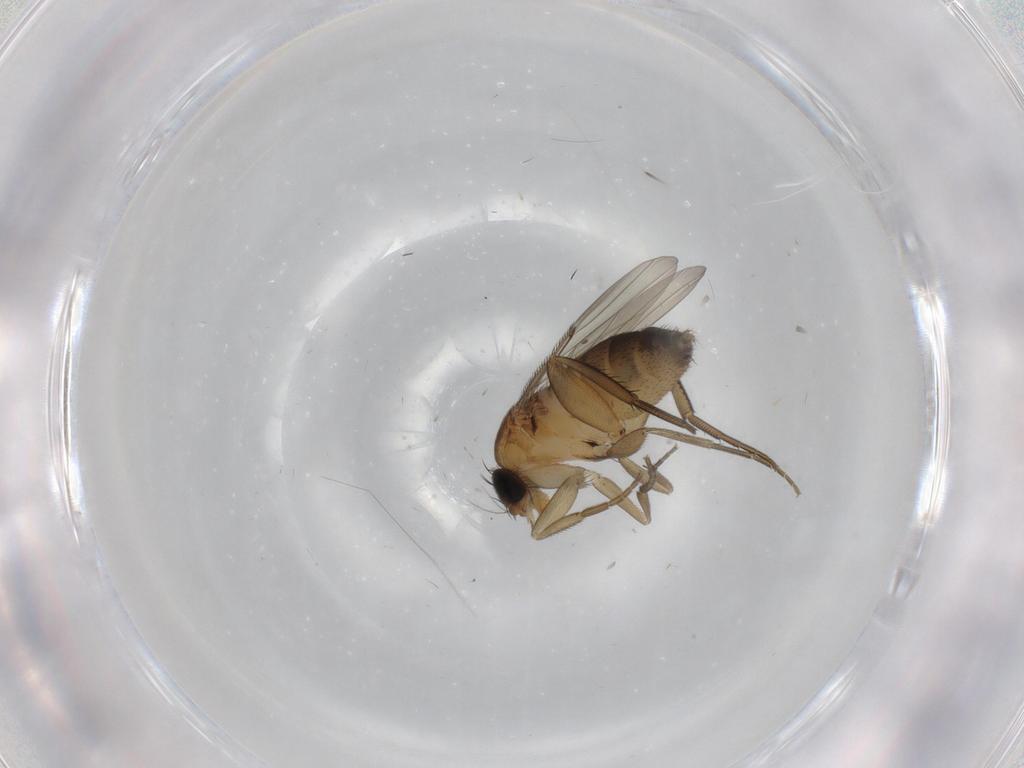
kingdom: Animalia
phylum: Arthropoda
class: Insecta
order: Diptera
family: Phoridae
